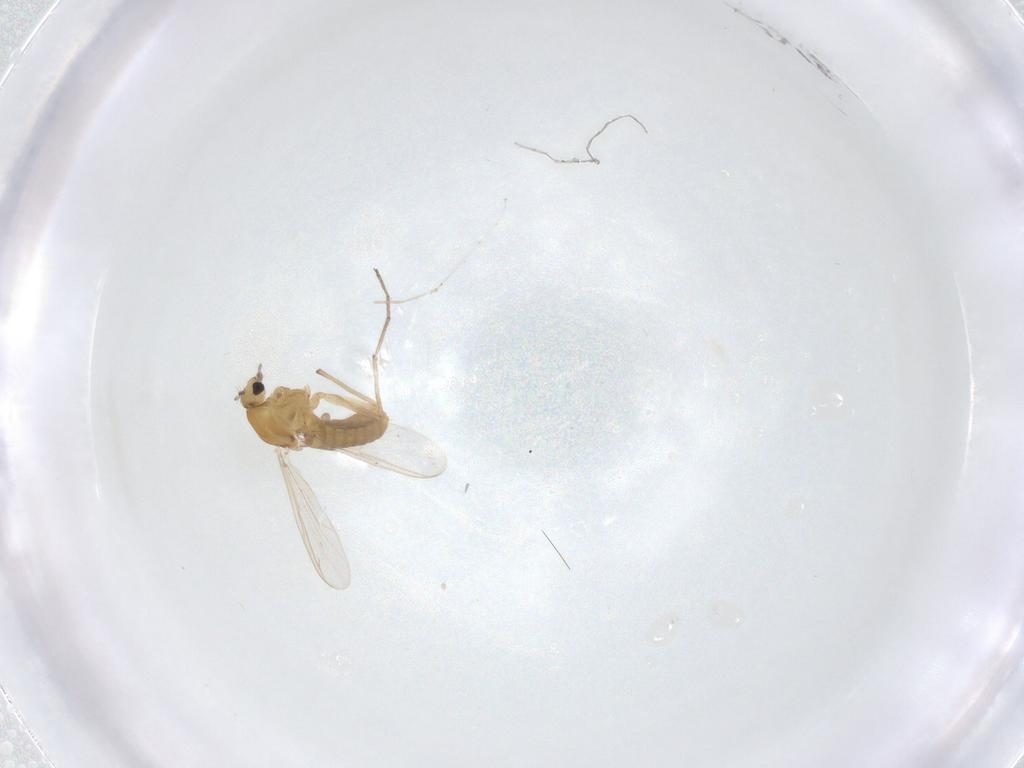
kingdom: Animalia
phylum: Arthropoda
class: Insecta
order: Diptera
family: Chironomidae
